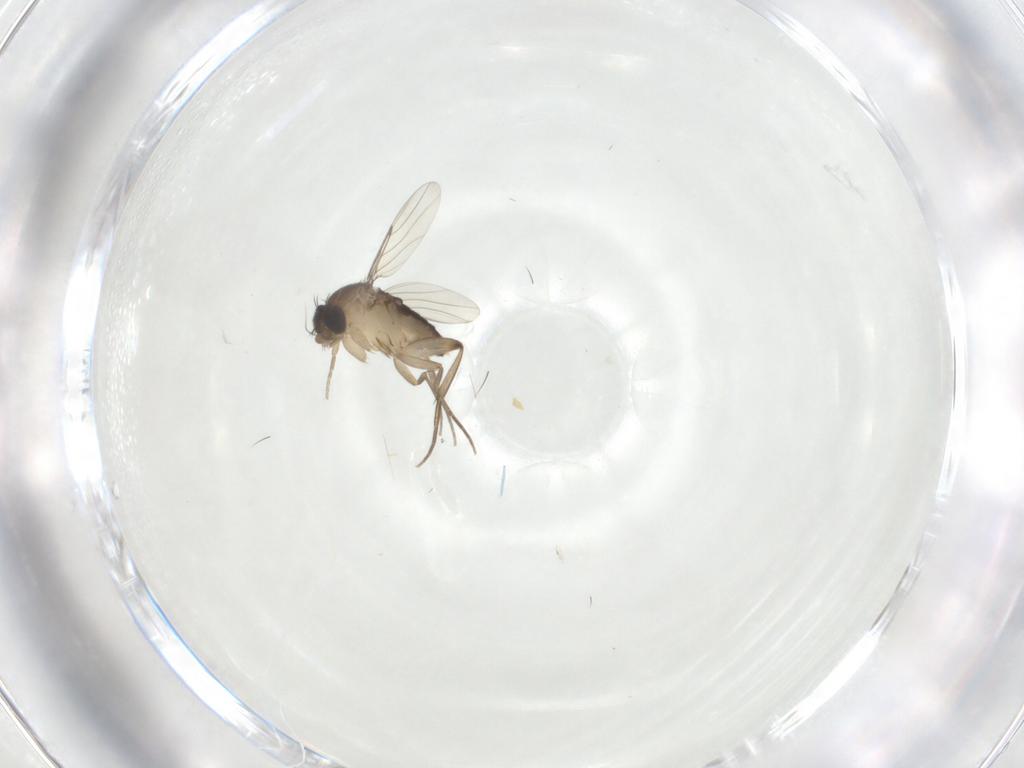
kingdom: Animalia
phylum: Arthropoda
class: Insecta
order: Diptera
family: Phoridae
